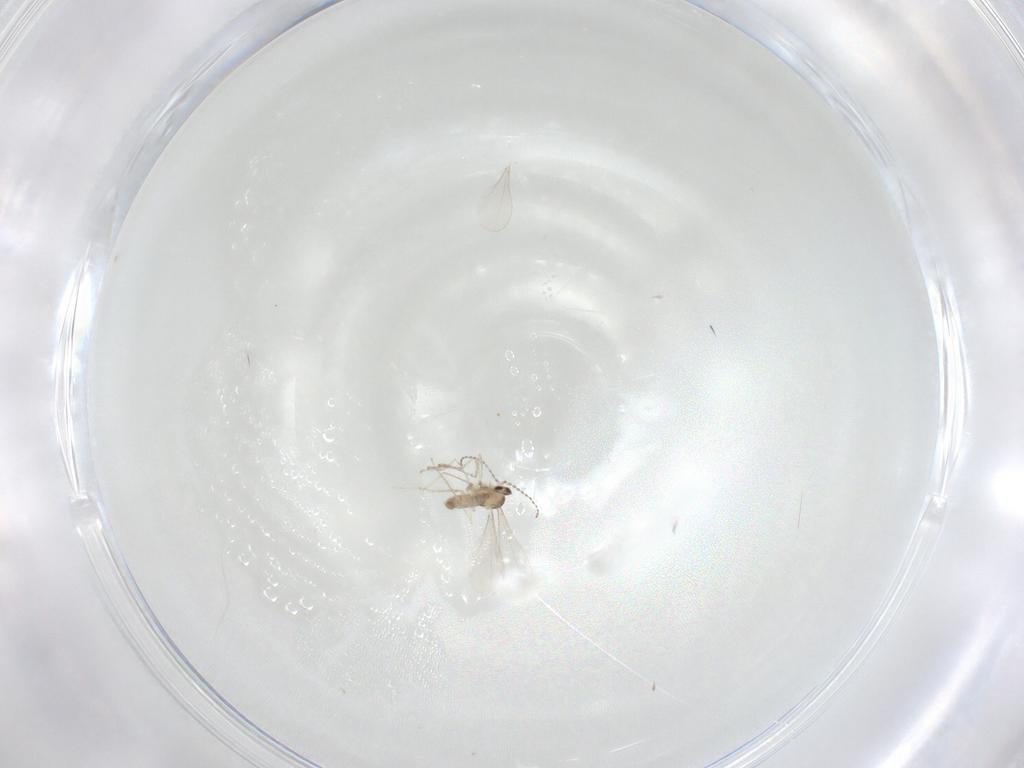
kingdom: Animalia
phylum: Arthropoda
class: Insecta
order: Diptera
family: Cecidomyiidae
